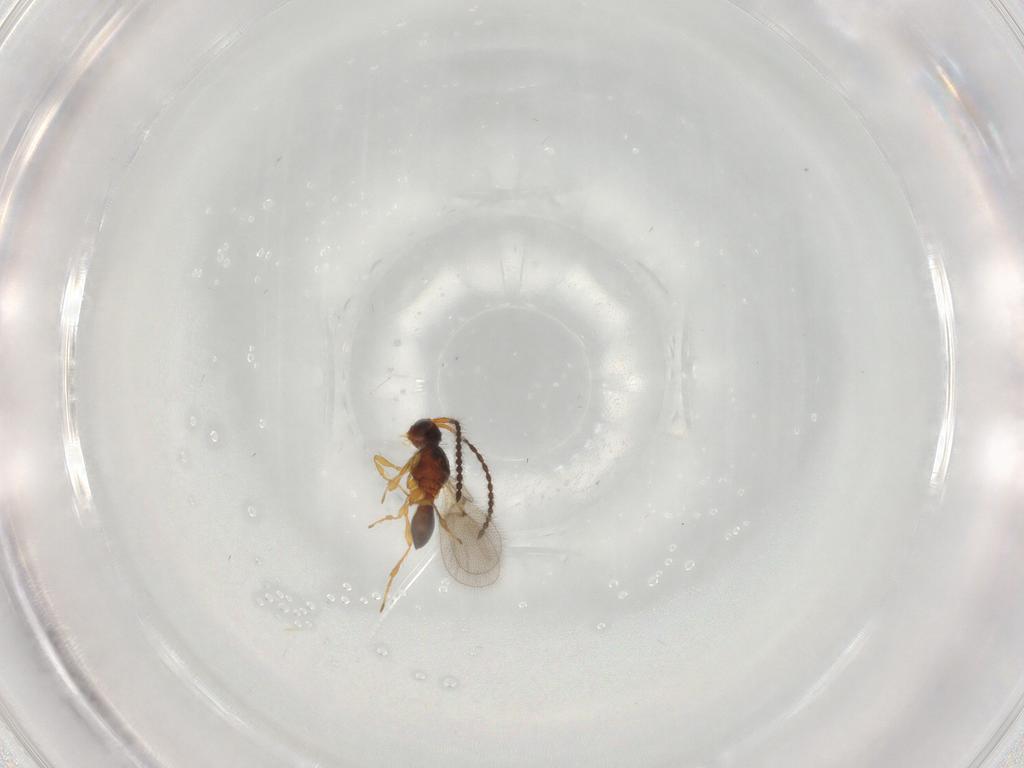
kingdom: Animalia
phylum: Arthropoda
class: Insecta
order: Hymenoptera
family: Diapriidae
